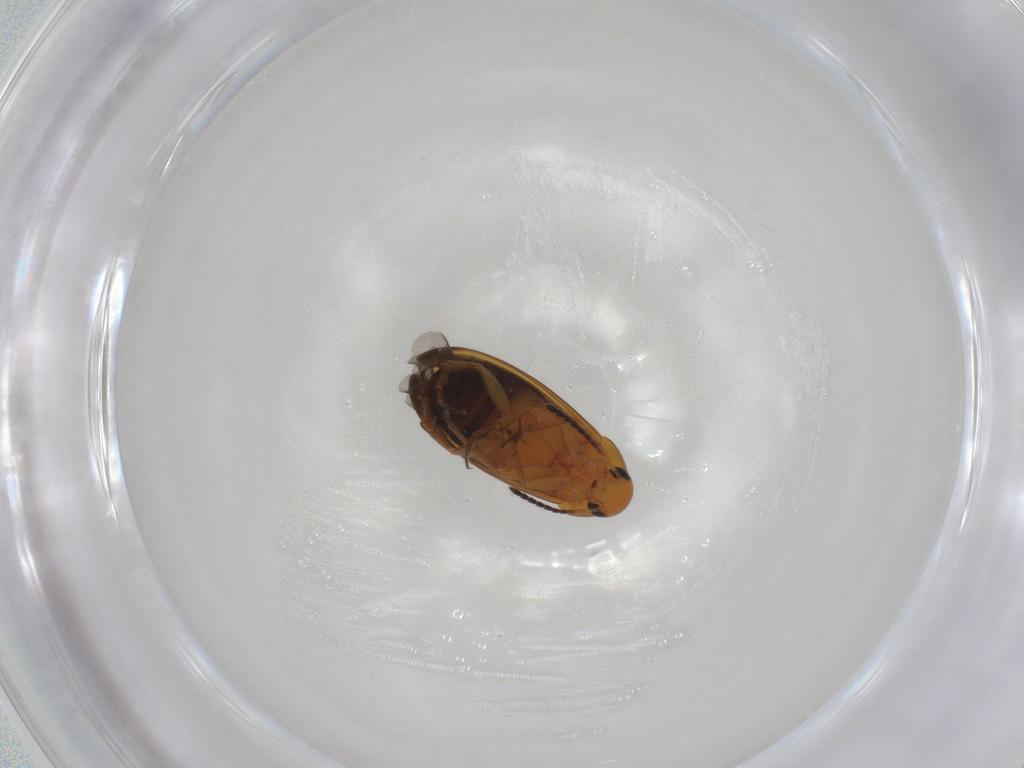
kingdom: Animalia
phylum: Arthropoda
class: Insecta
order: Coleoptera
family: Scraptiidae
